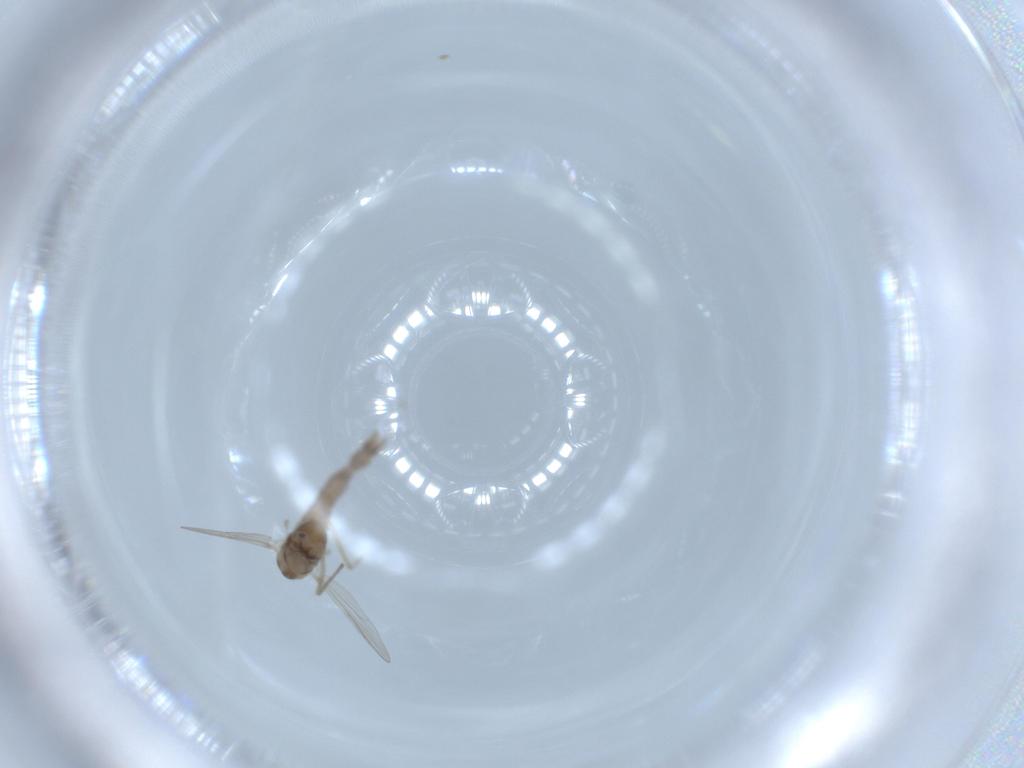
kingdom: Animalia
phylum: Arthropoda
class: Insecta
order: Diptera
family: Chironomidae
